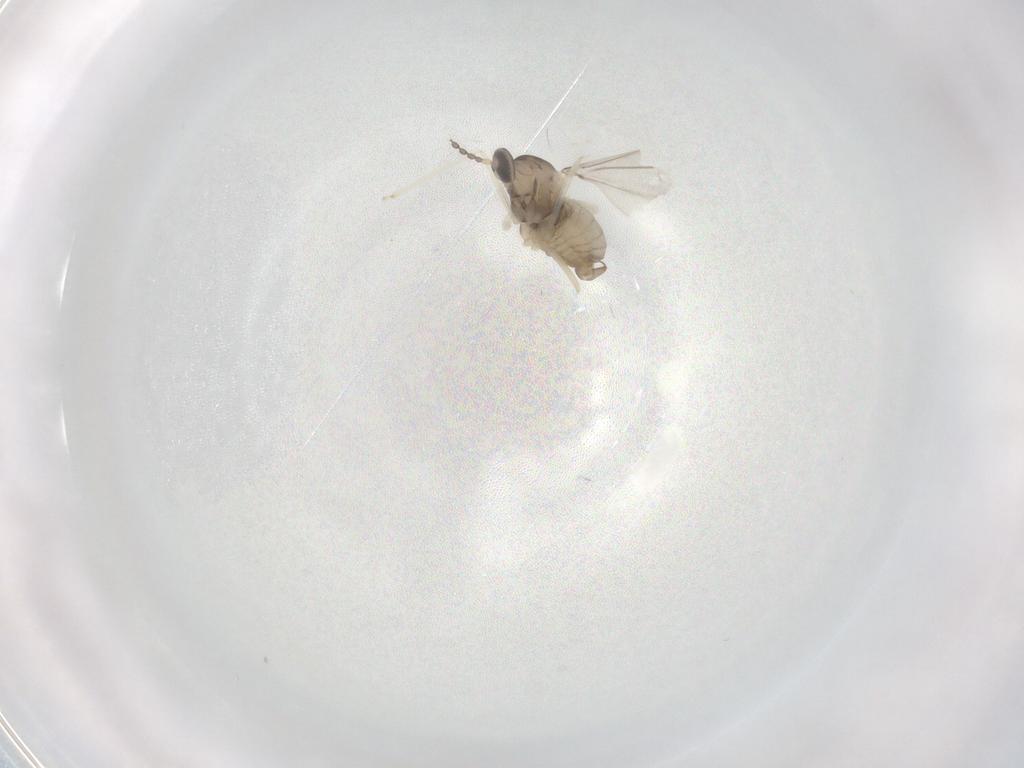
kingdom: Animalia
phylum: Arthropoda
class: Insecta
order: Diptera
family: Cecidomyiidae
